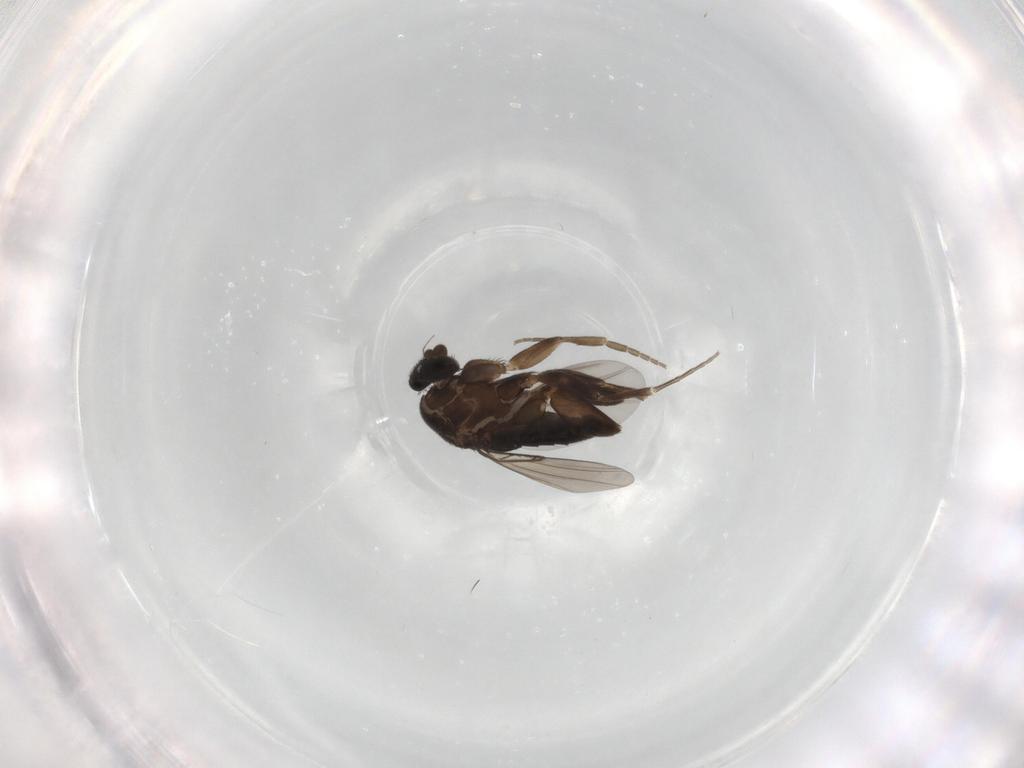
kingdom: Animalia
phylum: Arthropoda
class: Insecta
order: Diptera
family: Phoridae
